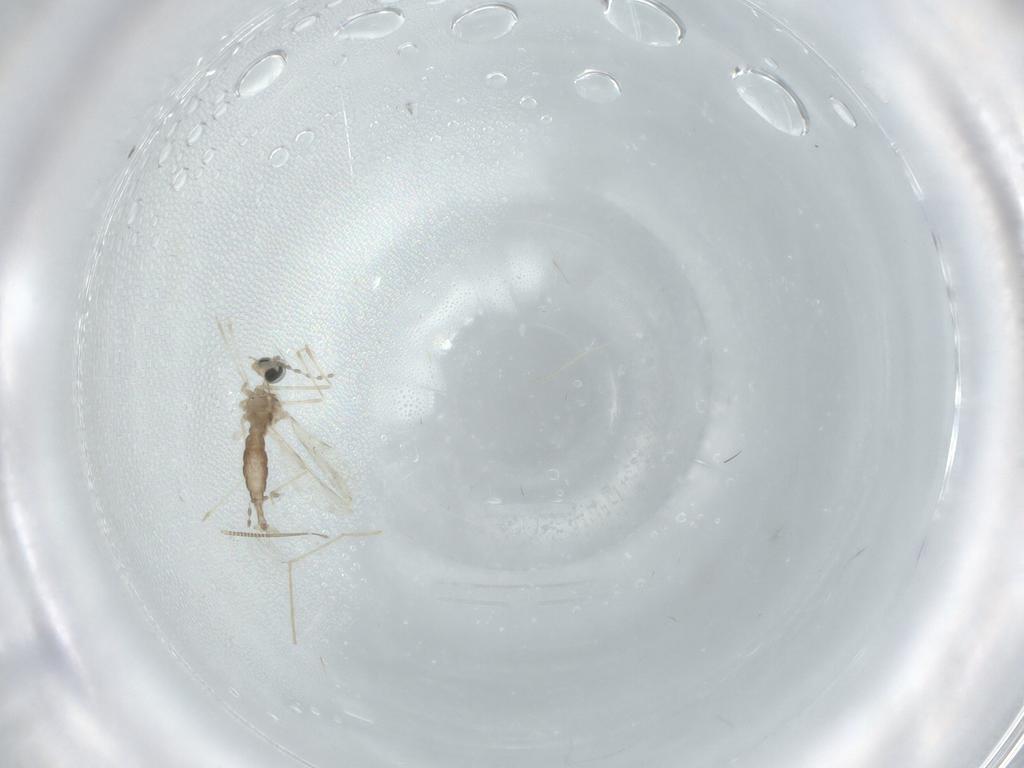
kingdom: Animalia
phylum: Arthropoda
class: Insecta
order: Diptera
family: Cecidomyiidae
